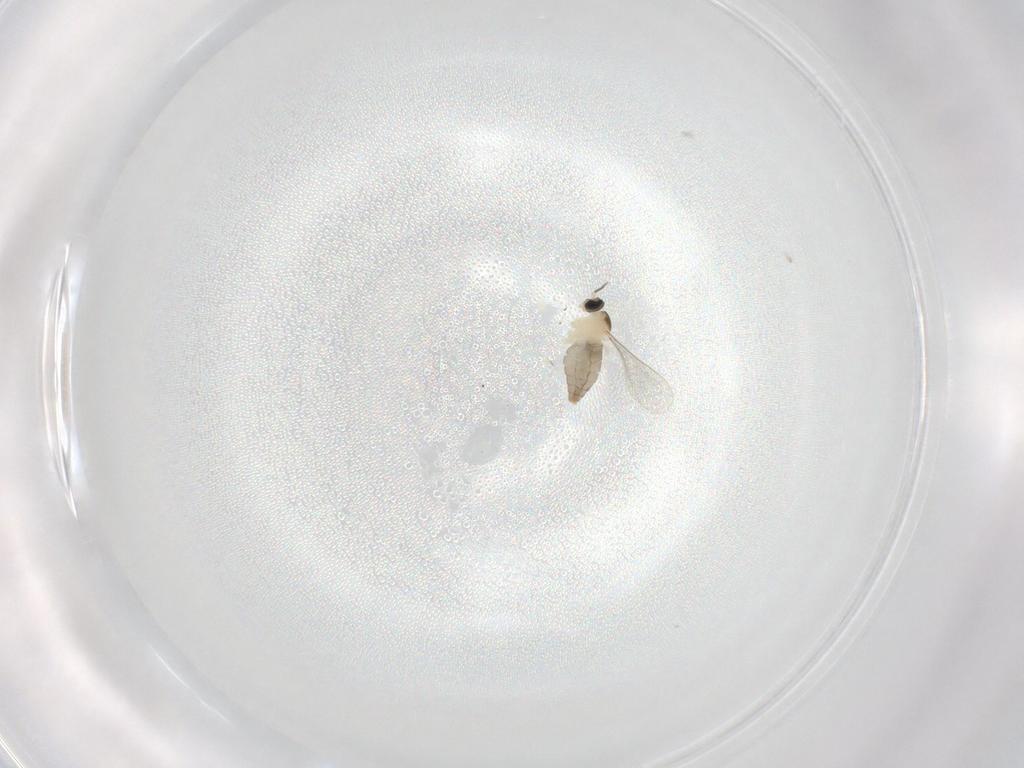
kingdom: Animalia
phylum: Arthropoda
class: Insecta
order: Diptera
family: Cecidomyiidae
